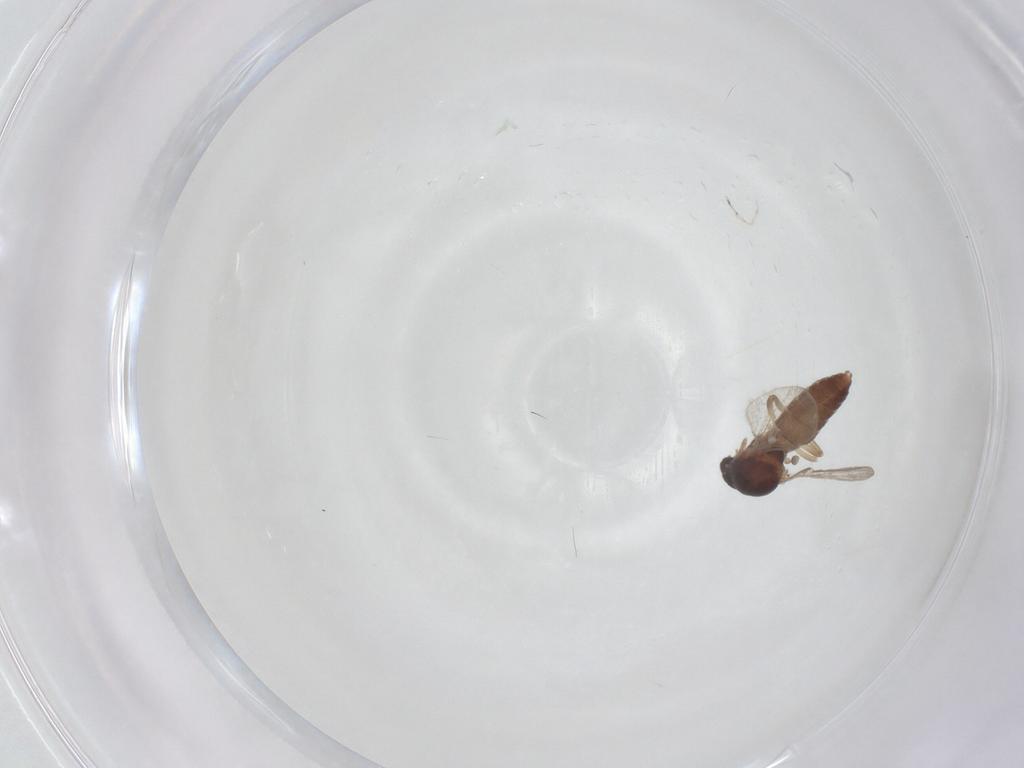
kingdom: Animalia
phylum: Arthropoda
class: Insecta
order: Diptera
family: Ceratopogonidae
